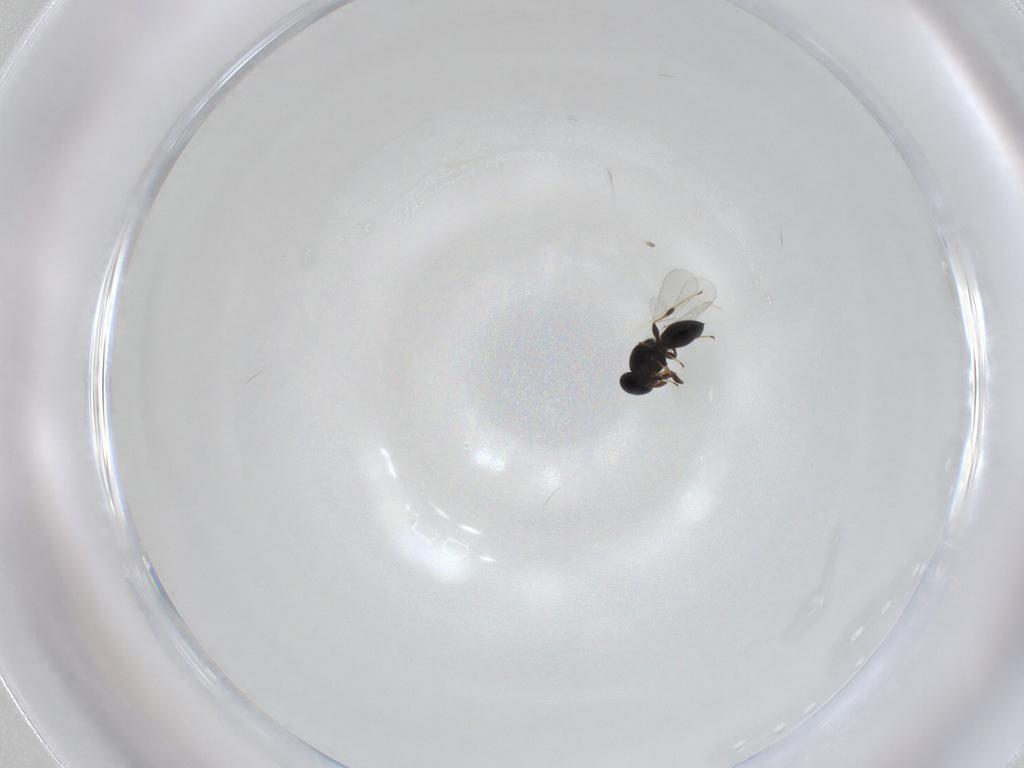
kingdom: Animalia
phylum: Arthropoda
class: Insecta
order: Hymenoptera
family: Platygastridae
